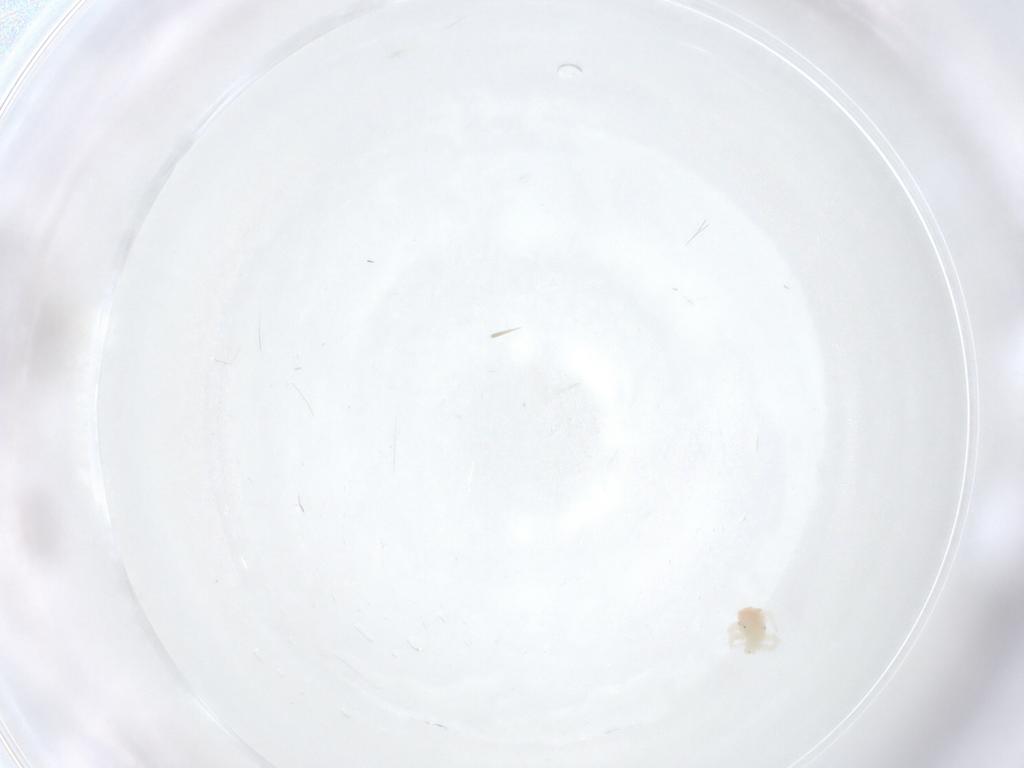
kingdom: Animalia
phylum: Arthropoda
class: Arachnida
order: Trombidiformes
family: Anystidae
